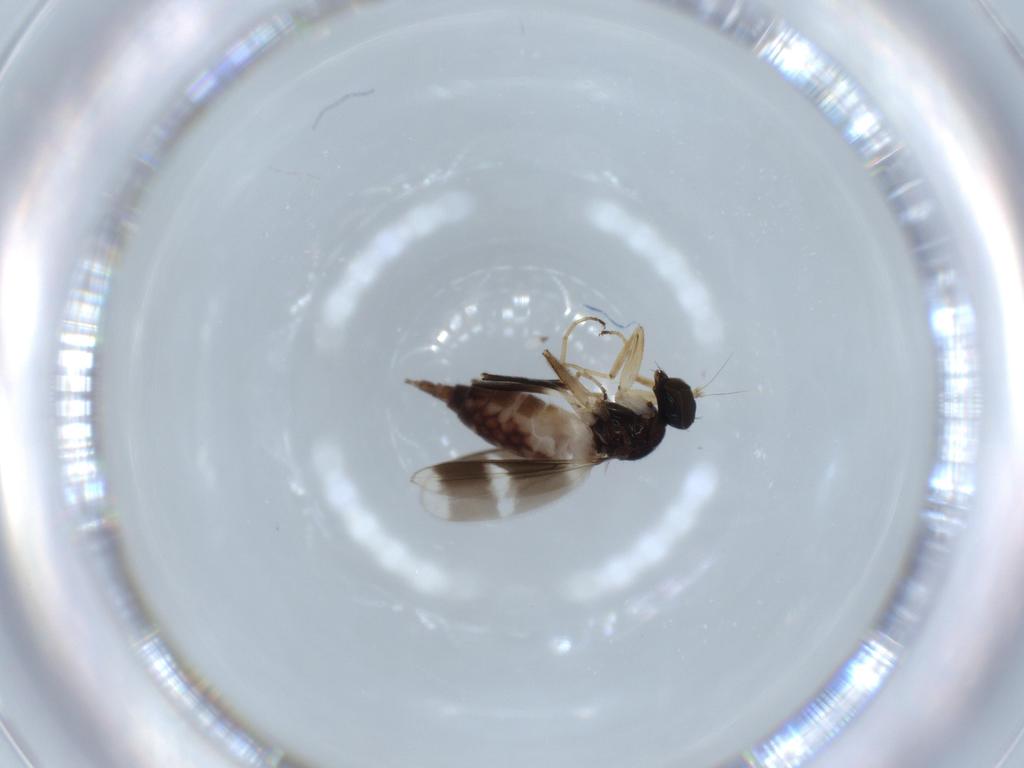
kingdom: Animalia
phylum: Arthropoda
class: Insecta
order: Diptera
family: Hybotidae
